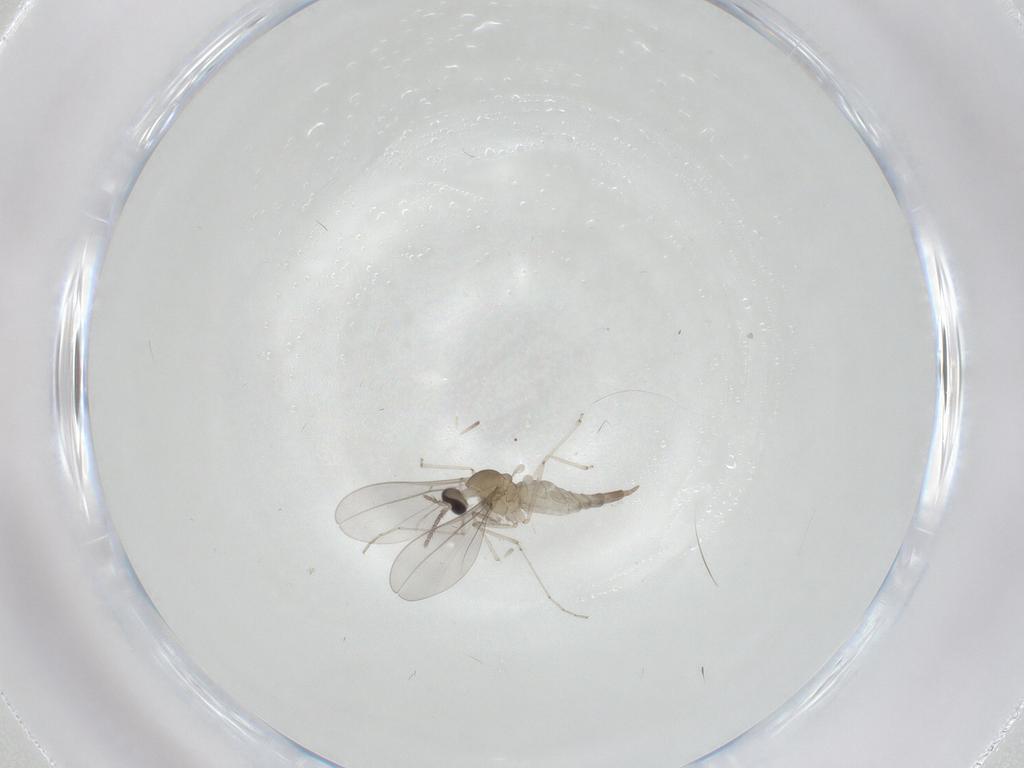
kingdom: Animalia
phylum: Arthropoda
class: Insecta
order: Diptera
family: Cecidomyiidae
